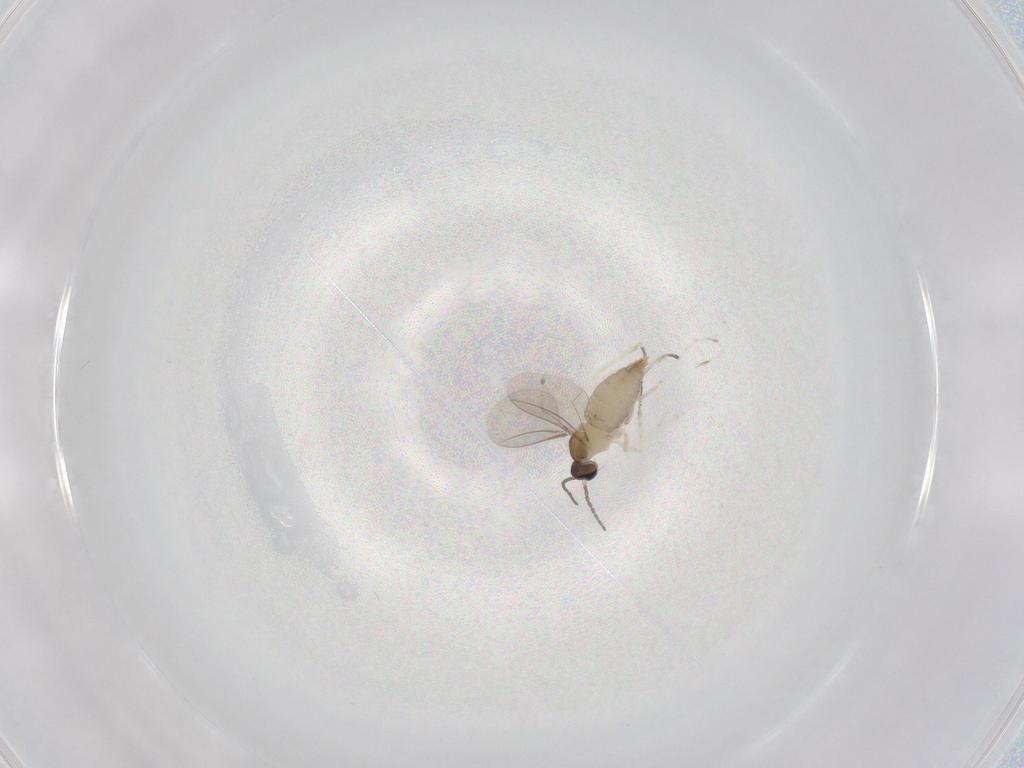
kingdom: Animalia
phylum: Arthropoda
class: Insecta
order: Diptera
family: Cecidomyiidae
